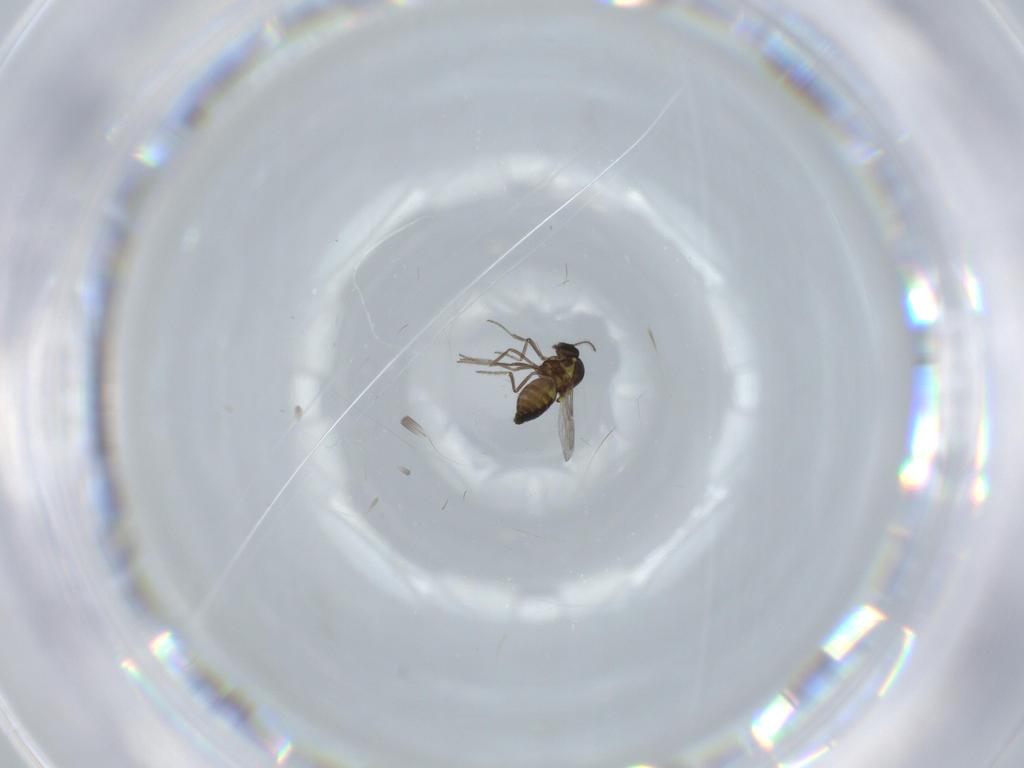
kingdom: Animalia
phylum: Arthropoda
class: Insecta
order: Diptera
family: Ceratopogonidae
